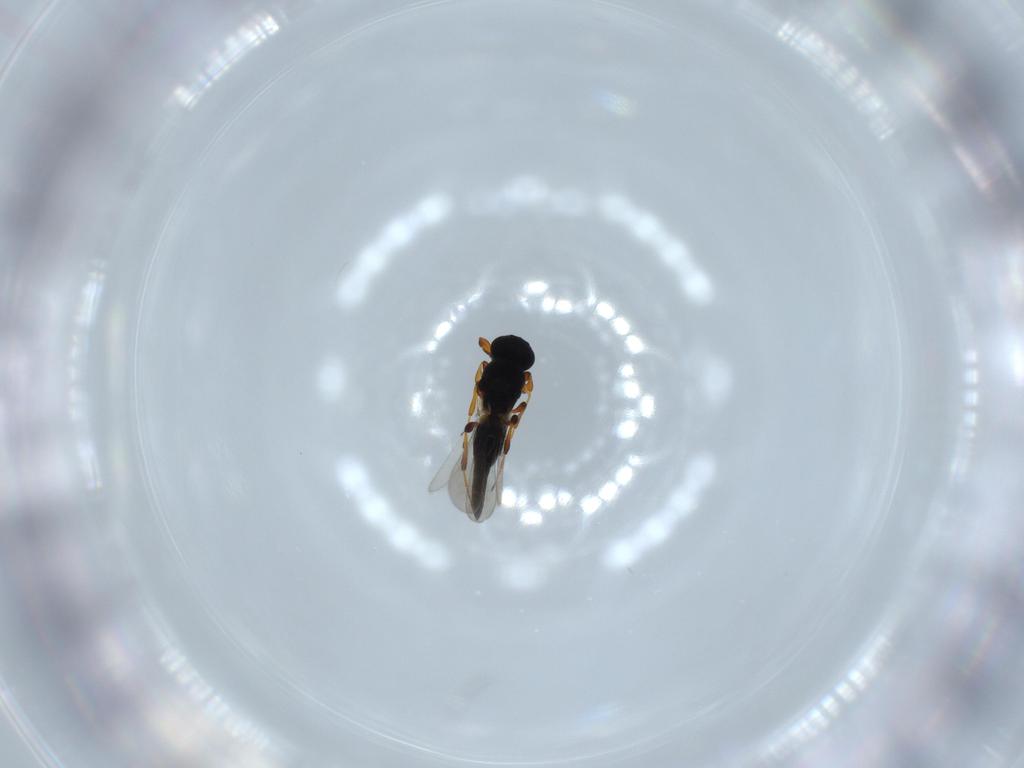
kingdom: Animalia
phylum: Arthropoda
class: Insecta
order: Hymenoptera
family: Platygastridae
